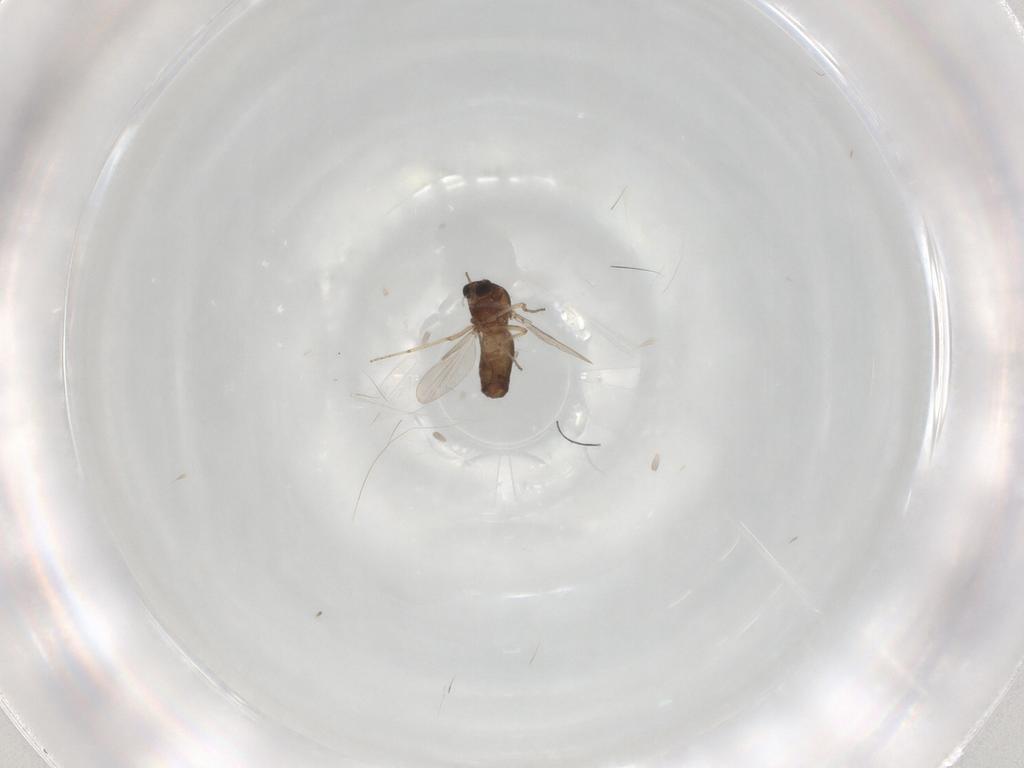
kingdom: Animalia
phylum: Arthropoda
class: Insecta
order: Diptera
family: Ceratopogonidae
